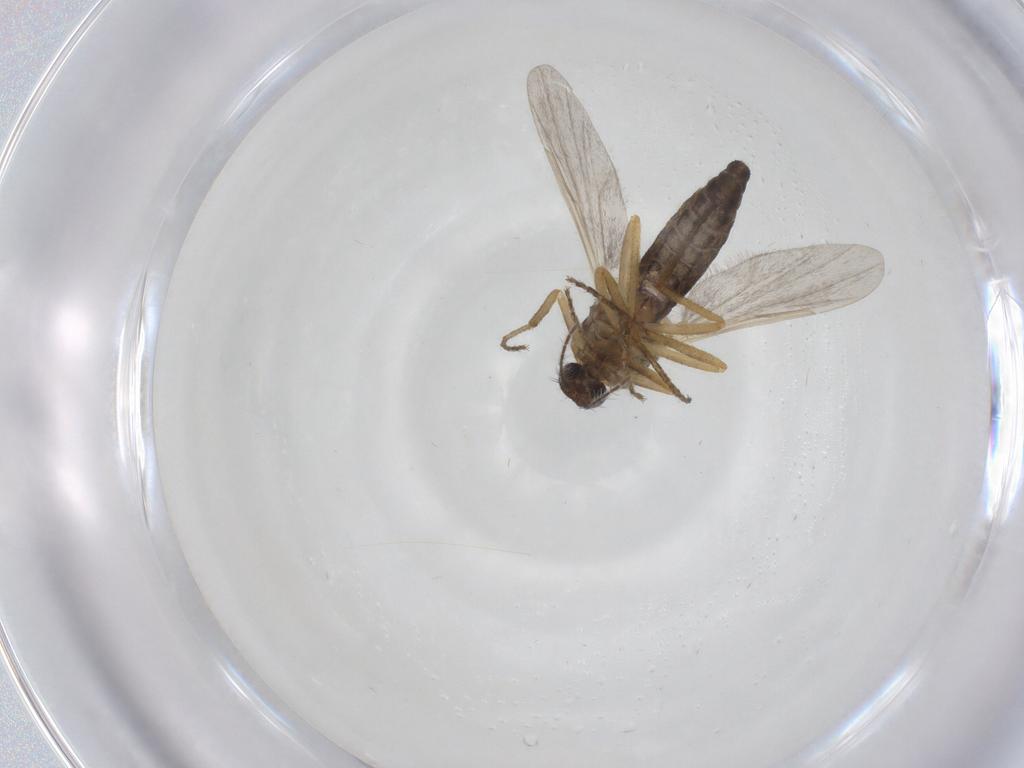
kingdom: Animalia
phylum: Arthropoda
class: Insecta
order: Diptera
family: Ceratopogonidae
